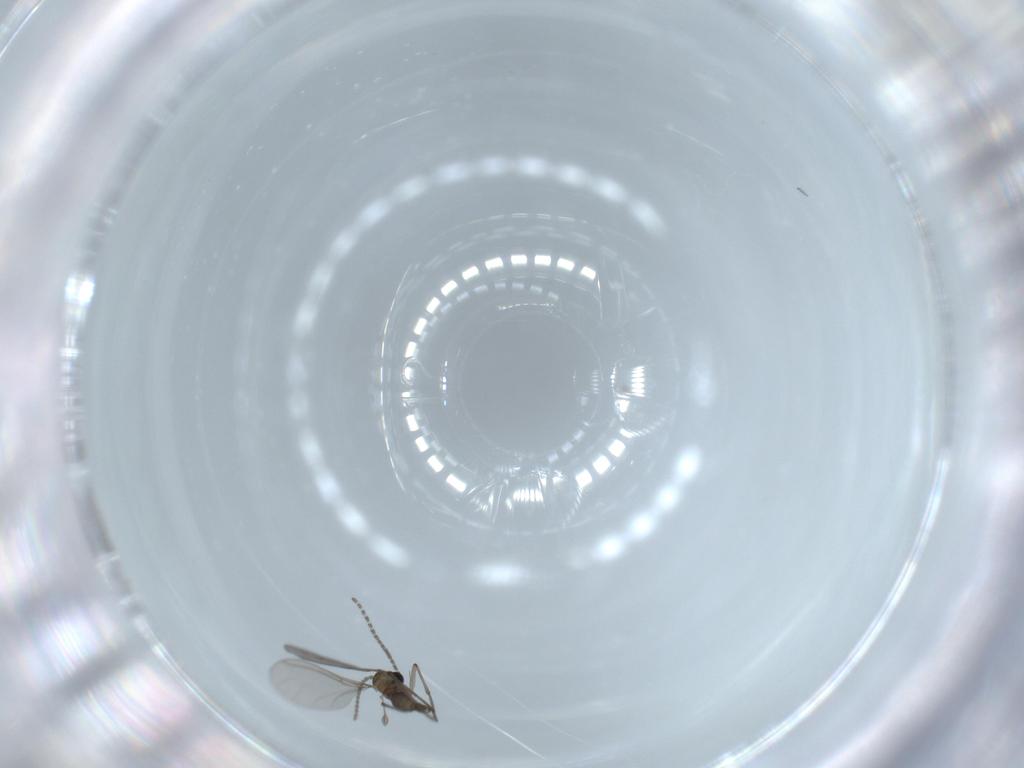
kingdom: Animalia
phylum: Arthropoda
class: Insecta
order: Diptera
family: Sciaridae
